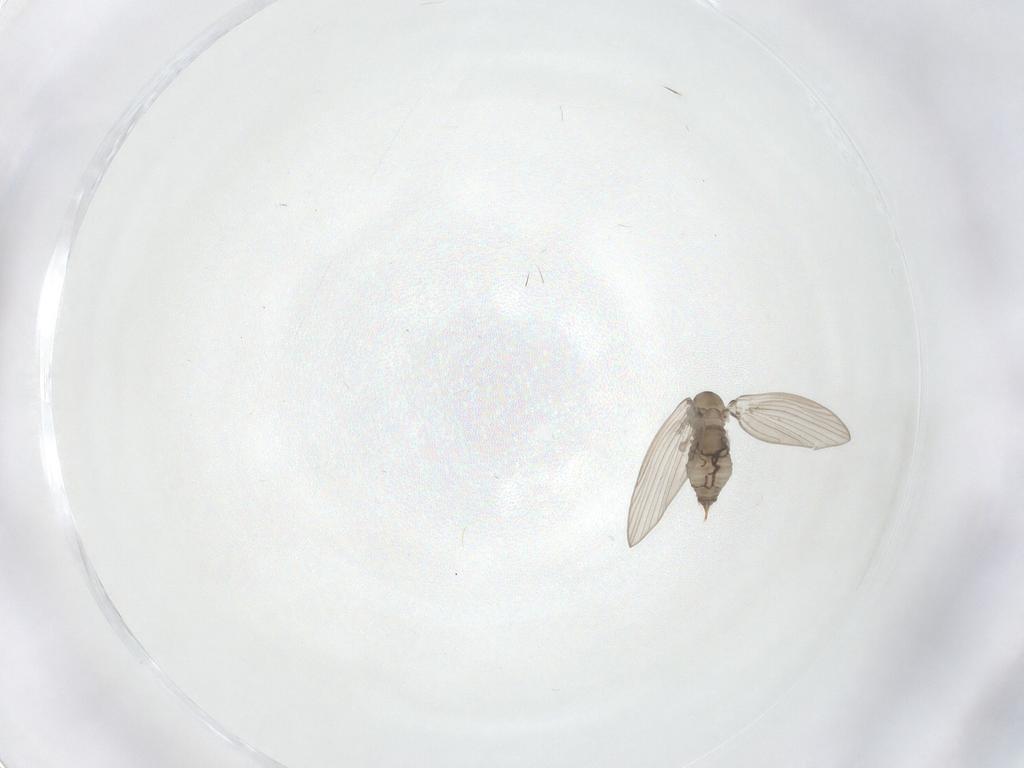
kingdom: Animalia
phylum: Arthropoda
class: Insecta
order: Diptera
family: Psychodidae
